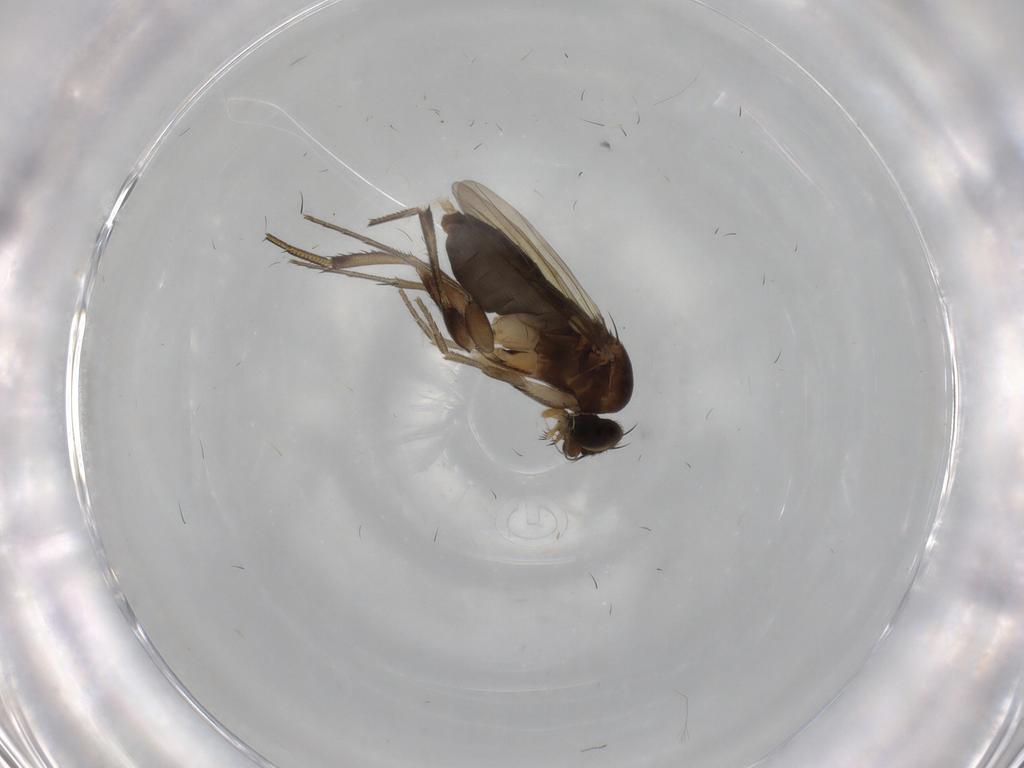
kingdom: Animalia
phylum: Arthropoda
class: Insecta
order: Diptera
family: Phoridae
